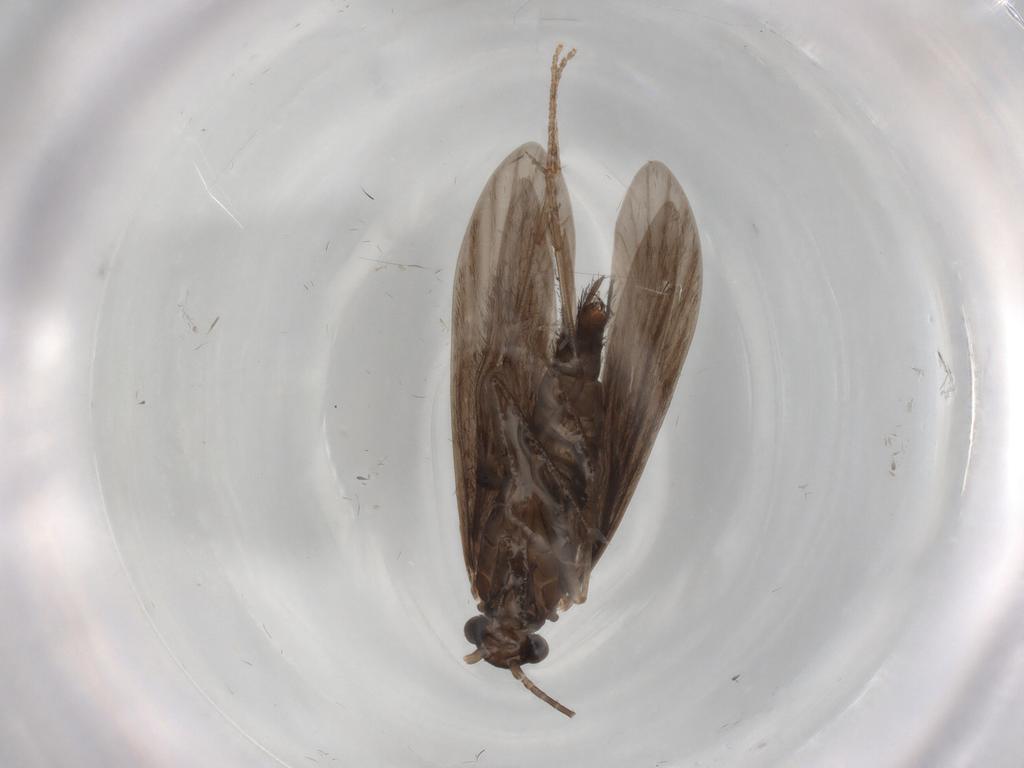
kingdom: Animalia
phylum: Arthropoda
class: Insecta
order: Trichoptera
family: Xiphocentronidae
